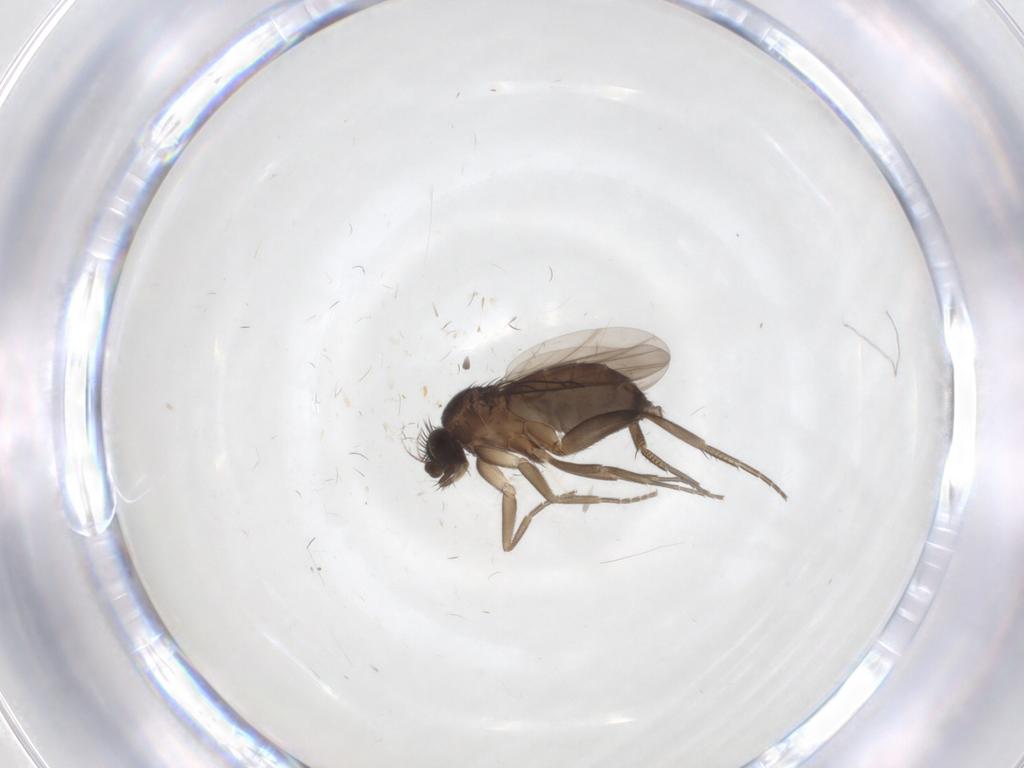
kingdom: Animalia
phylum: Arthropoda
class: Insecta
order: Diptera
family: Phoridae
